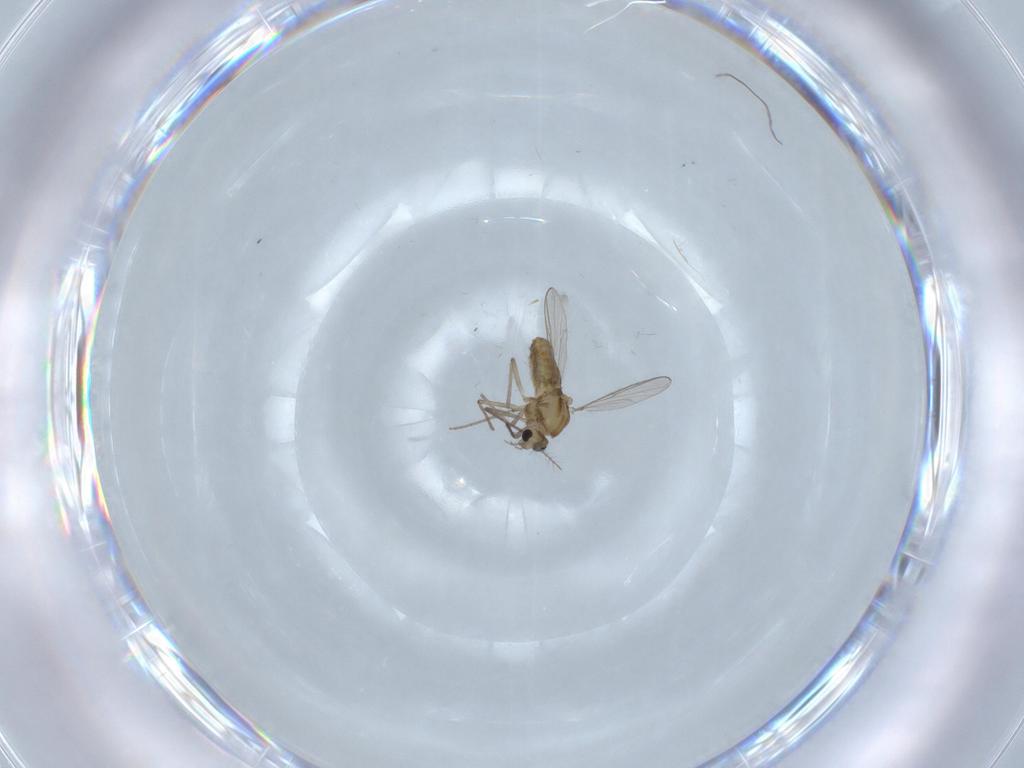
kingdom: Animalia
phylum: Arthropoda
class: Insecta
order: Diptera
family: Chironomidae
